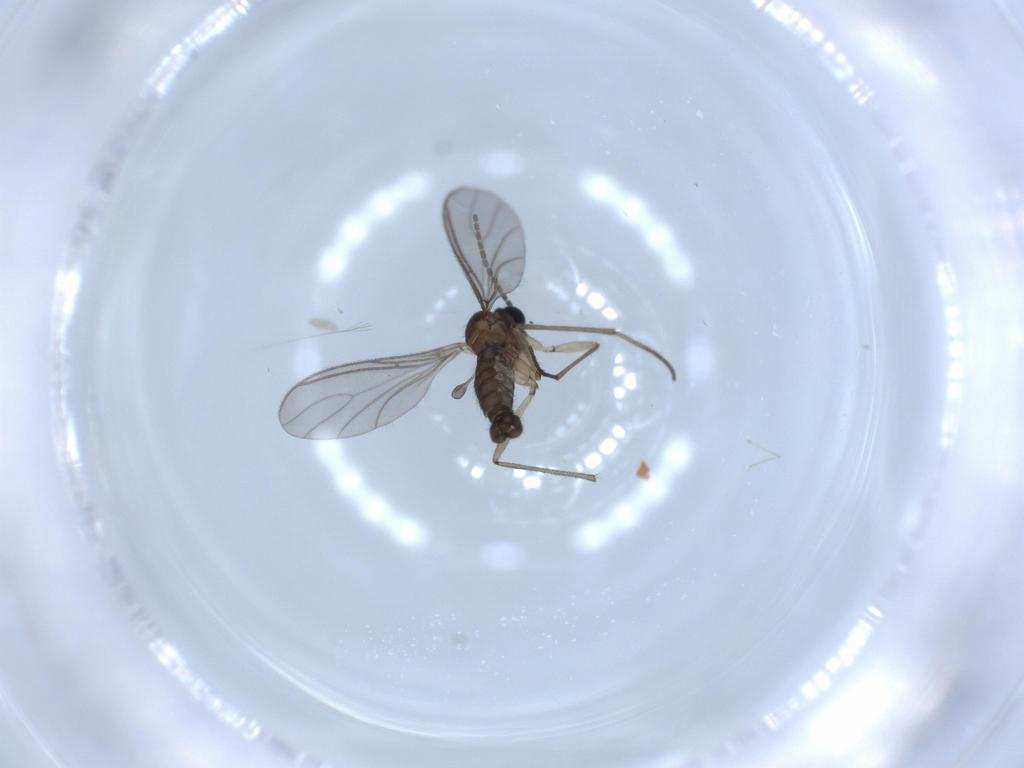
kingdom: Animalia
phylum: Arthropoda
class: Insecta
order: Diptera
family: Sciaridae
